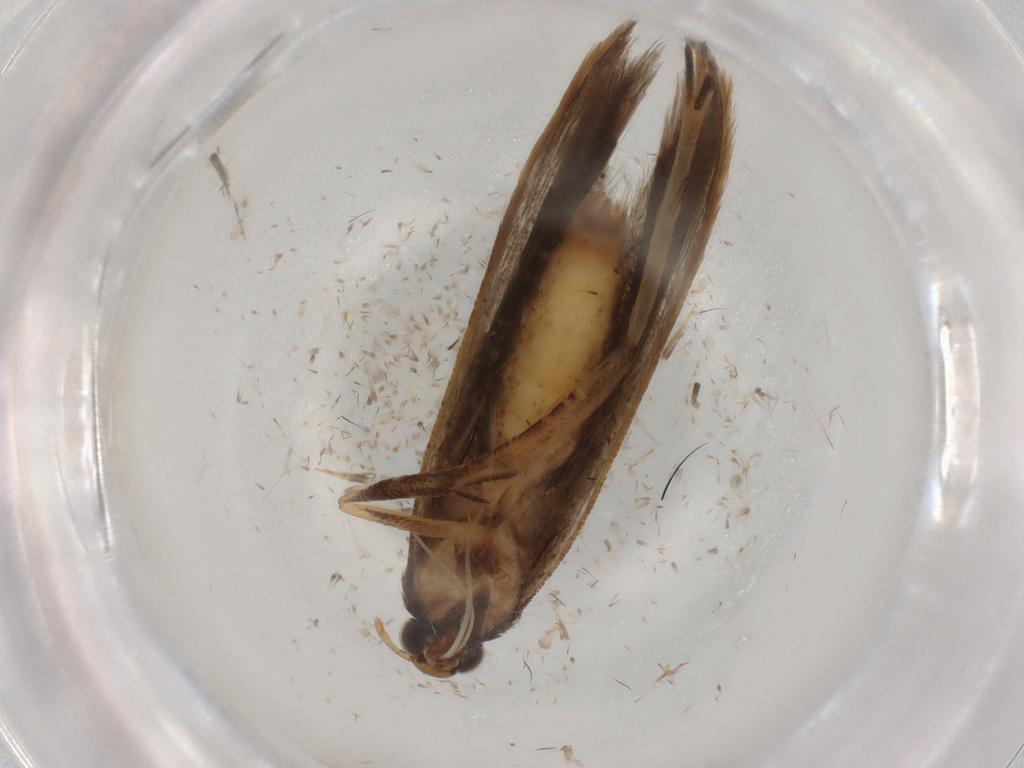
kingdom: Animalia
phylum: Arthropoda
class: Insecta
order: Lepidoptera
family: Gelechiidae
